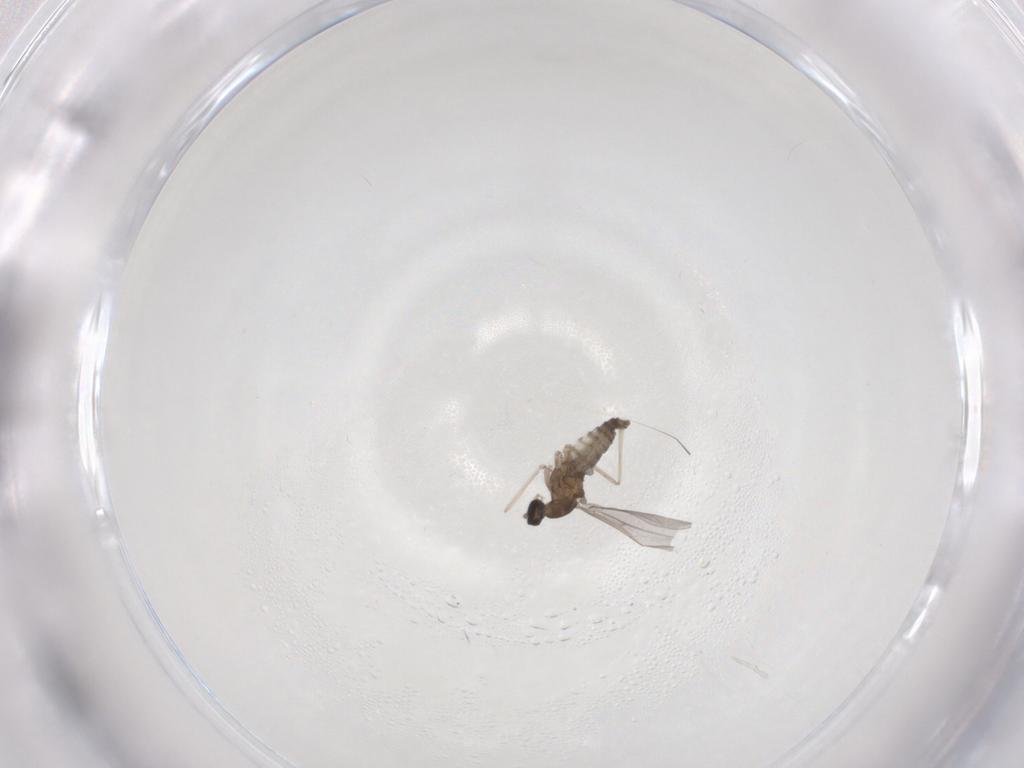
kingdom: Animalia
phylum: Arthropoda
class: Insecta
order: Diptera
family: Cecidomyiidae
